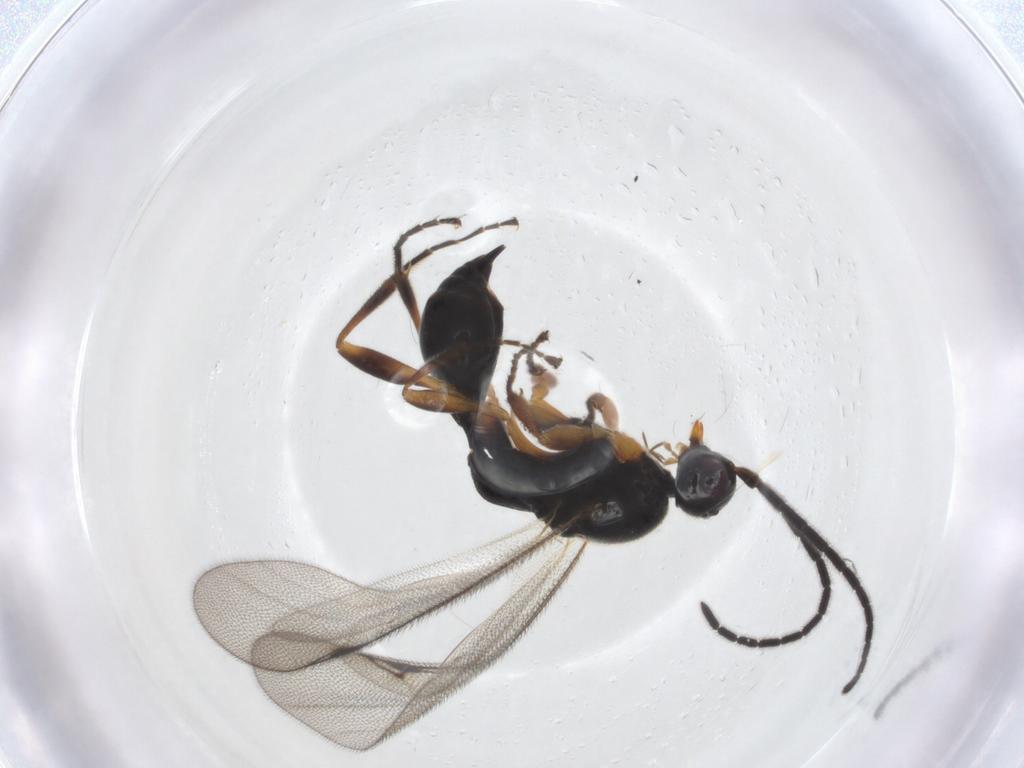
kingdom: Animalia
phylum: Arthropoda
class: Insecta
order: Hymenoptera
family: Proctotrupidae
